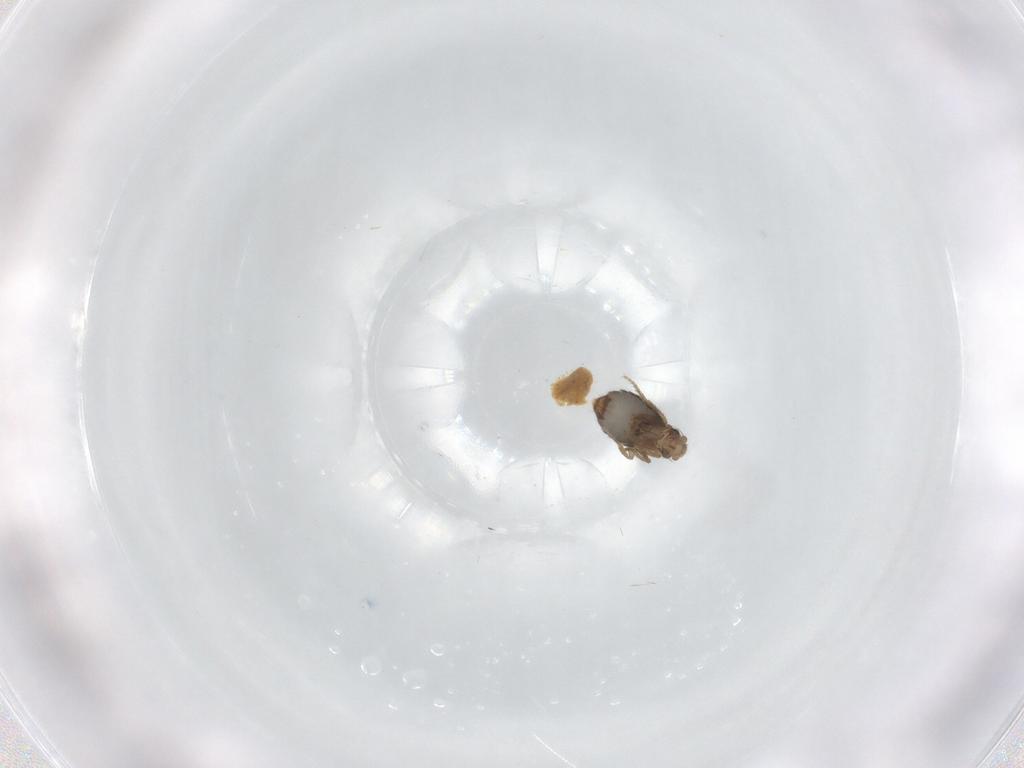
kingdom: Animalia
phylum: Arthropoda
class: Insecta
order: Diptera
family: Phoridae
